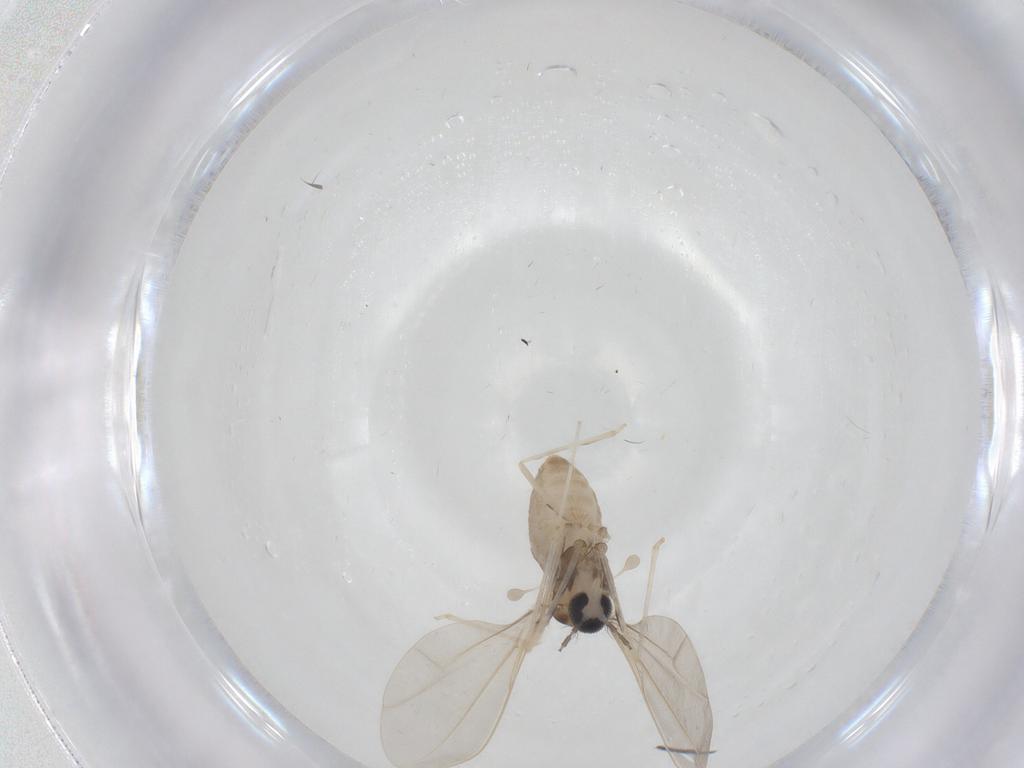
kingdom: Animalia
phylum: Arthropoda
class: Insecta
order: Diptera
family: Cecidomyiidae
